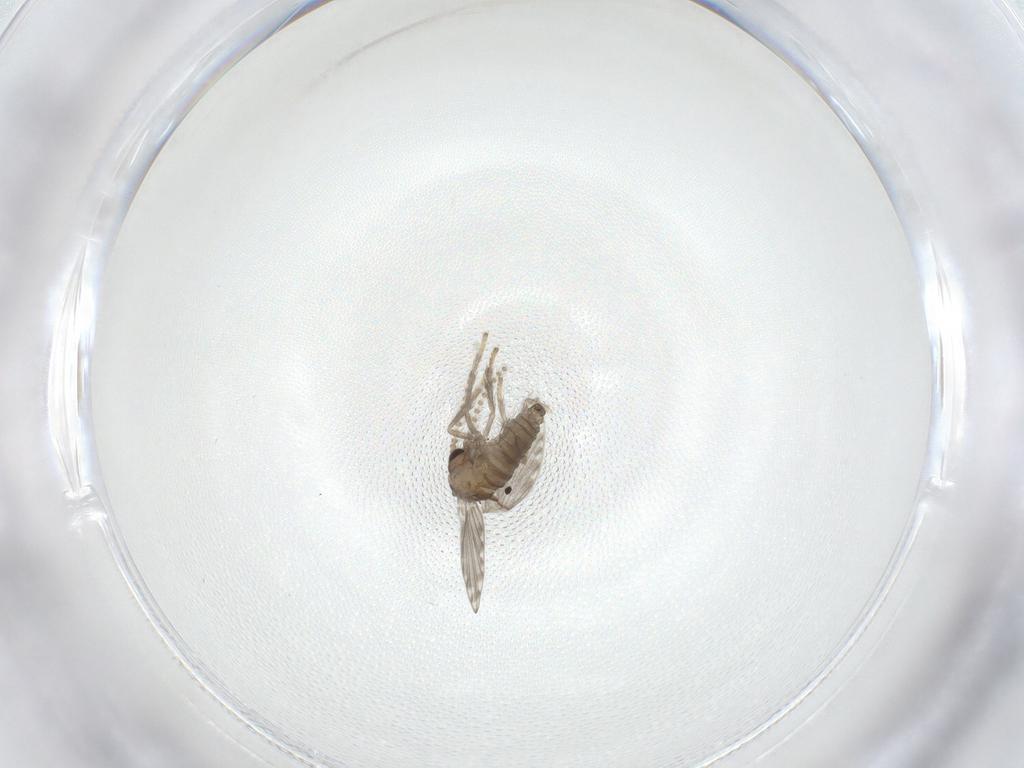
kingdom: Animalia
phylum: Arthropoda
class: Insecta
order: Diptera
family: Psychodidae
